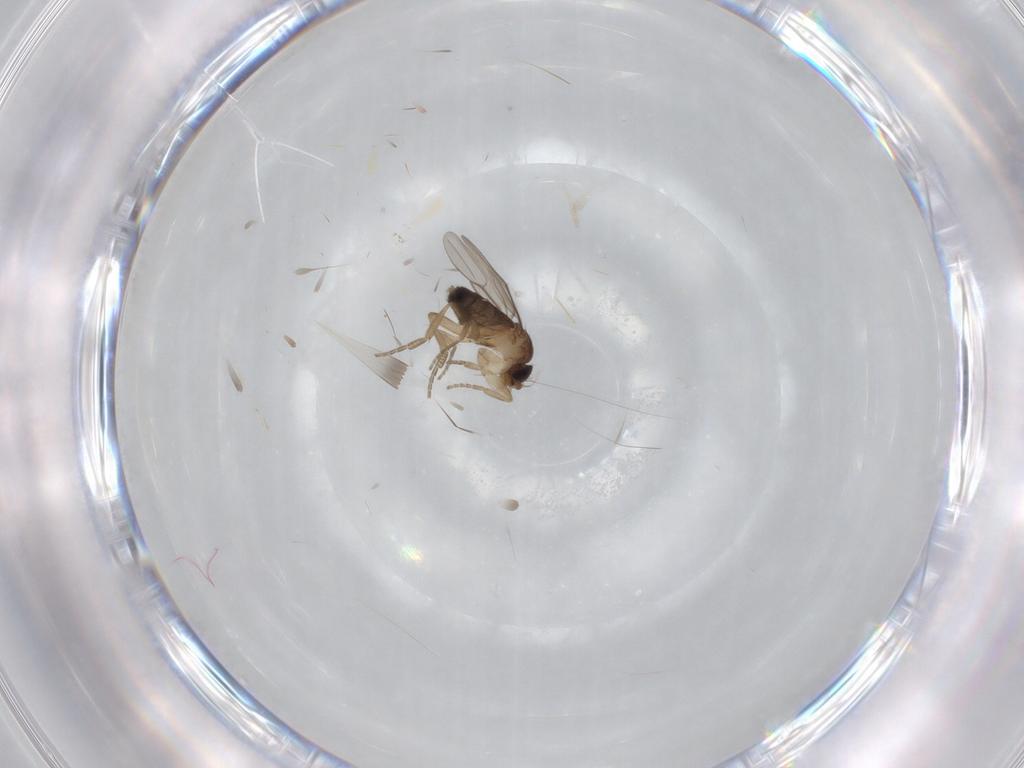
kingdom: Animalia
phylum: Arthropoda
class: Insecta
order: Diptera
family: Phoridae
